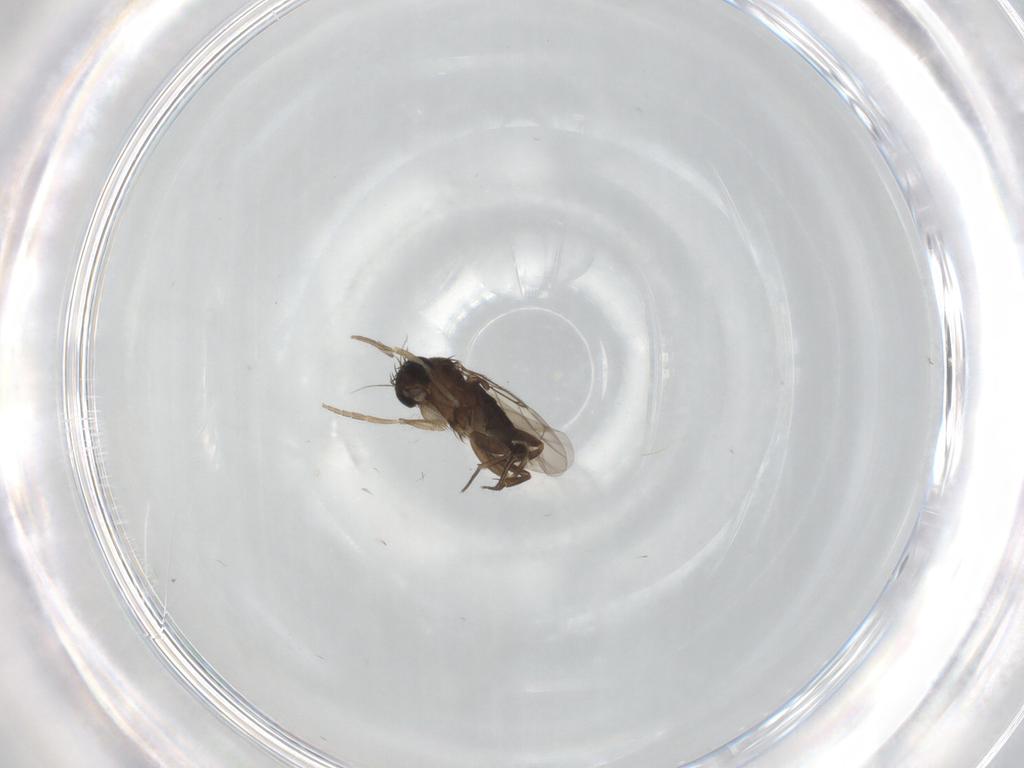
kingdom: Animalia
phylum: Arthropoda
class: Insecta
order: Diptera
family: Phoridae
